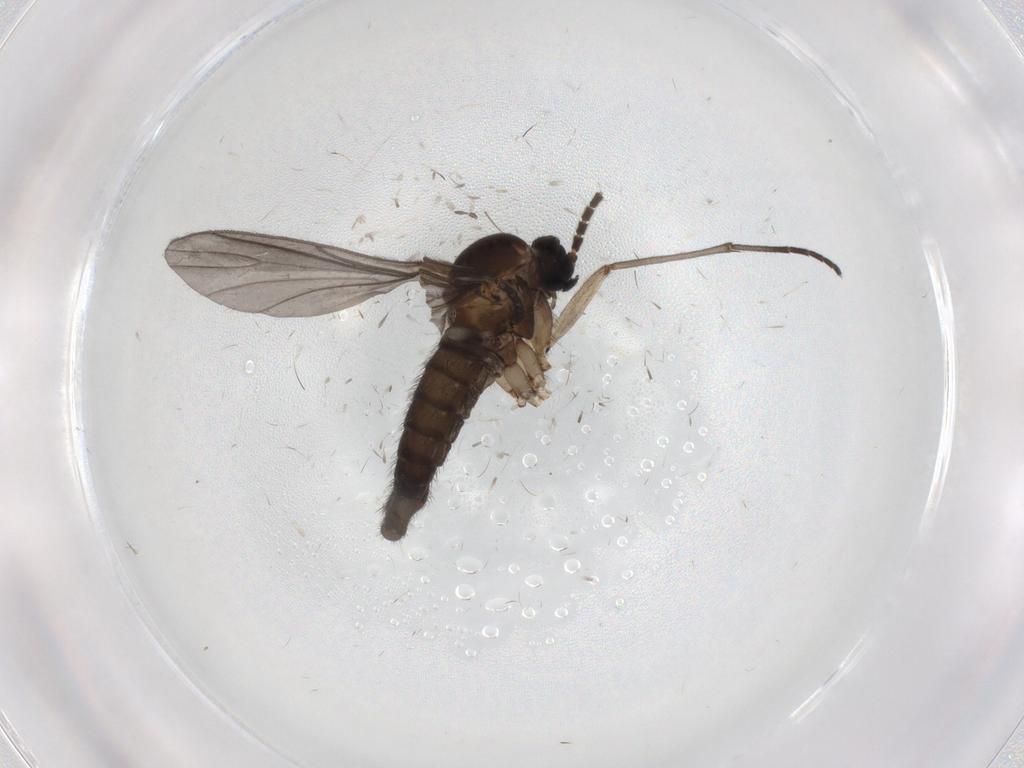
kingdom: Animalia
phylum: Arthropoda
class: Insecta
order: Diptera
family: Sciaridae
